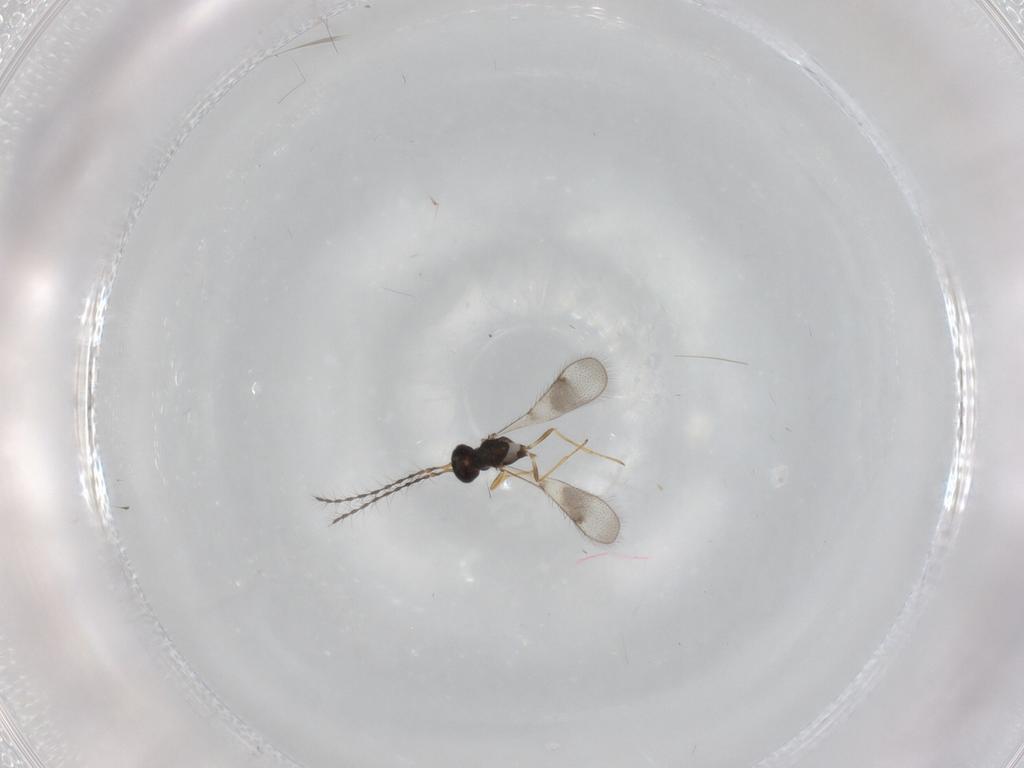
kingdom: Animalia
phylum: Arthropoda
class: Insecta
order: Hymenoptera
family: Diparidae
